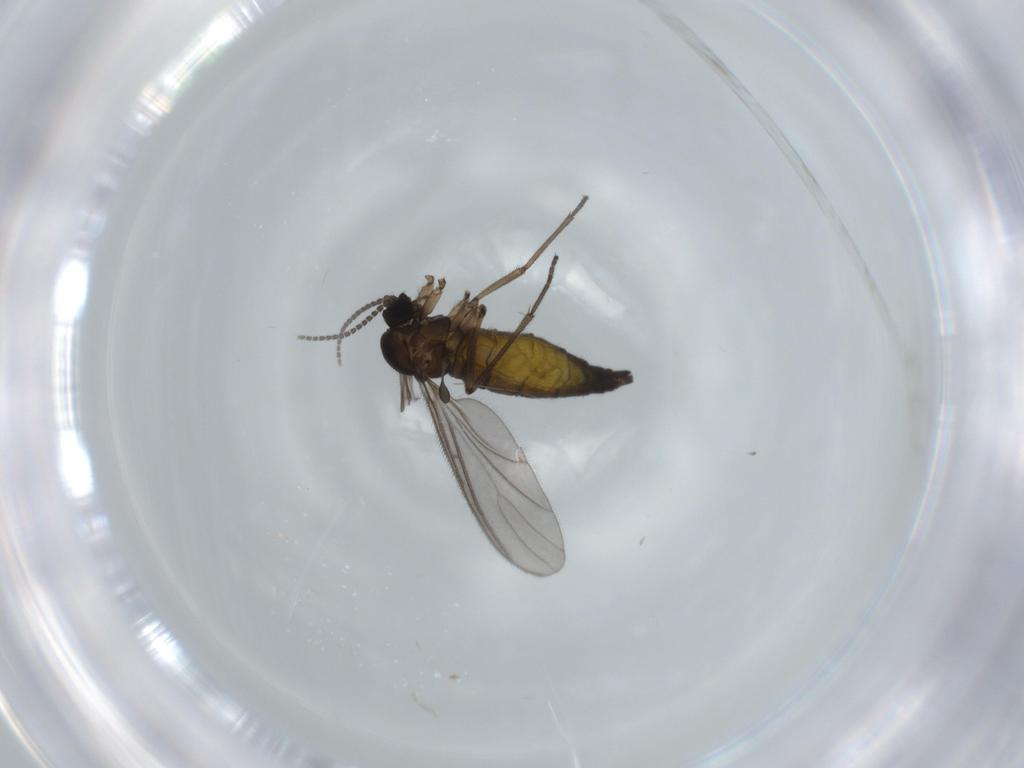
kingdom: Animalia
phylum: Arthropoda
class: Insecta
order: Diptera
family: Sciaridae
